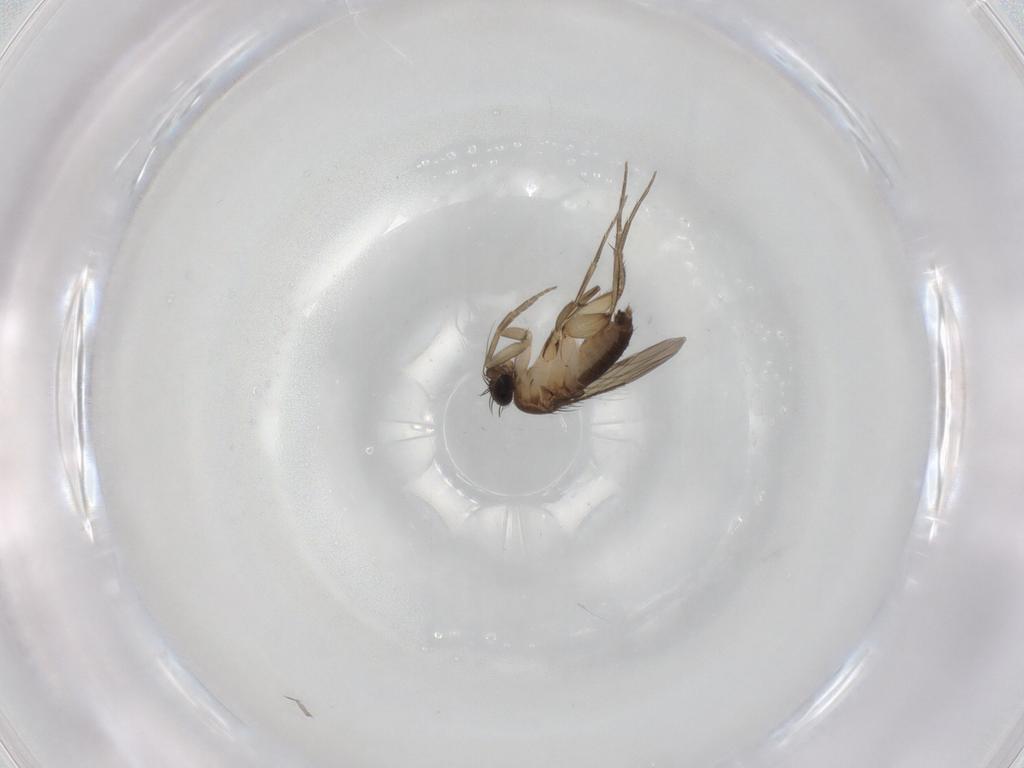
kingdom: Animalia
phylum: Arthropoda
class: Insecta
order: Diptera
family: Phoridae
